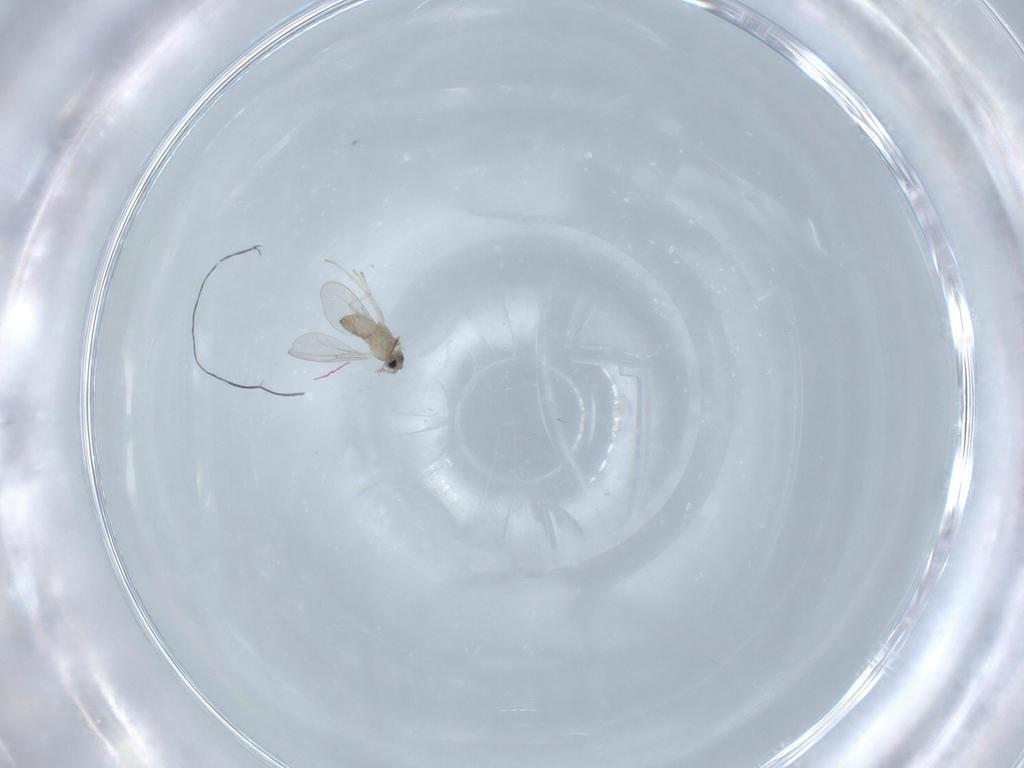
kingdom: Animalia
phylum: Arthropoda
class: Insecta
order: Diptera
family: Cecidomyiidae
